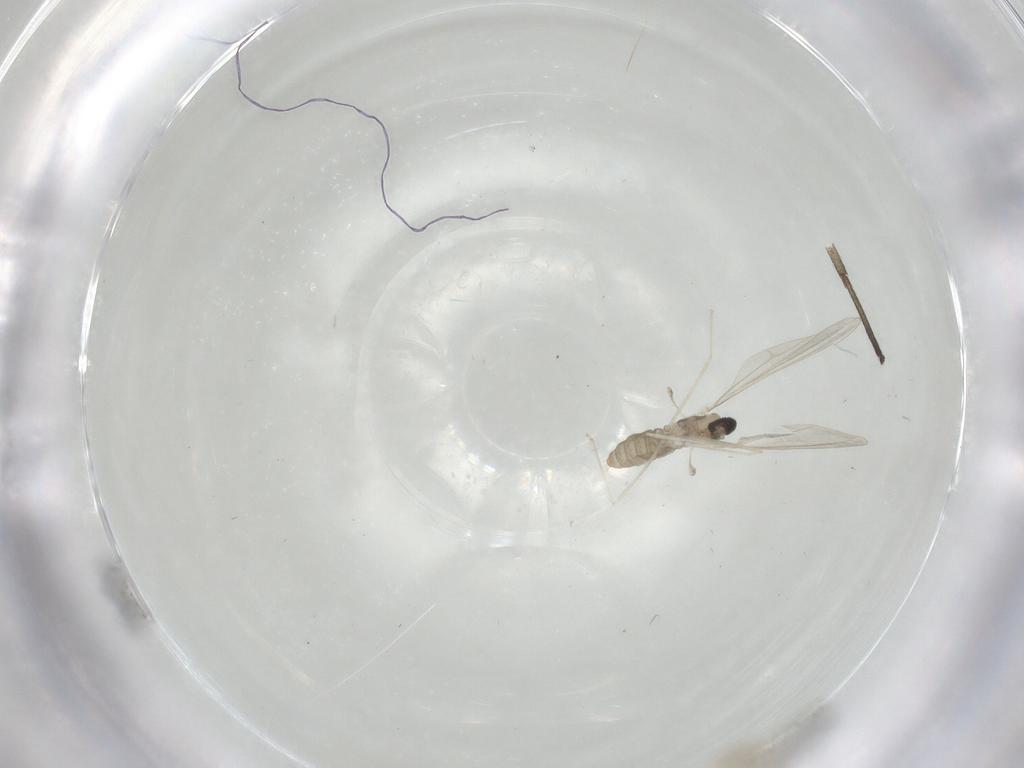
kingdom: Animalia
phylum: Arthropoda
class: Insecta
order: Diptera
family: Sciaridae
